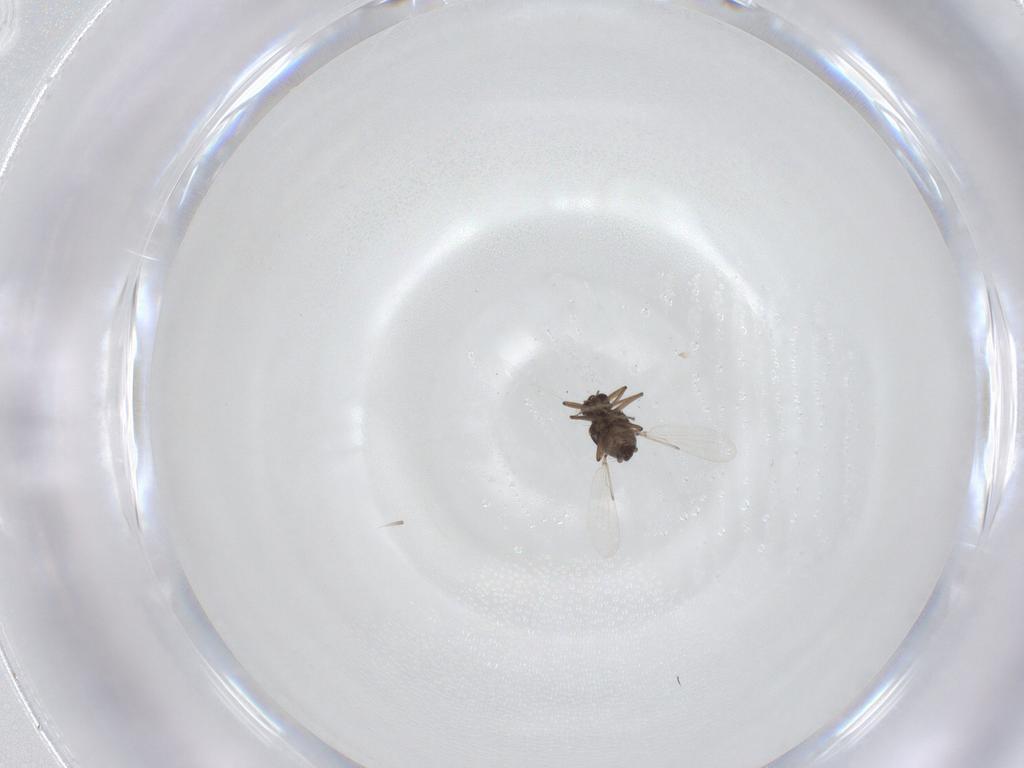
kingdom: Animalia
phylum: Arthropoda
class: Insecta
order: Diptera
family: Ceratopogonidae
